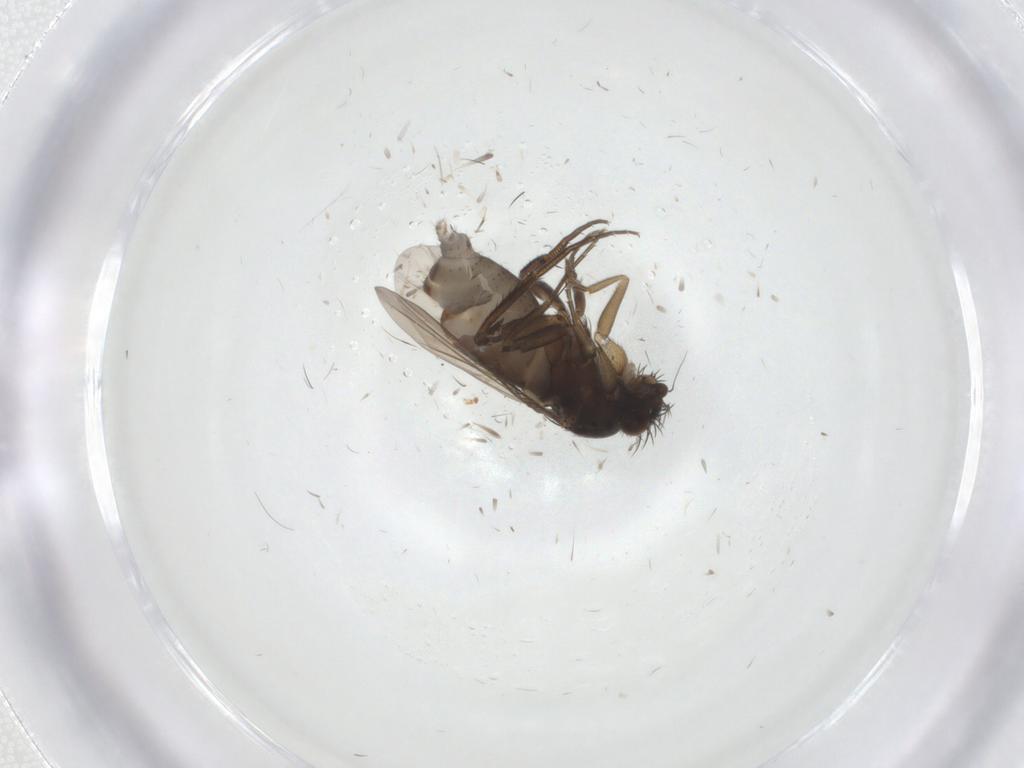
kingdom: Animalia
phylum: Arthropoda
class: Insecta
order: Diptera
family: Phoridae
